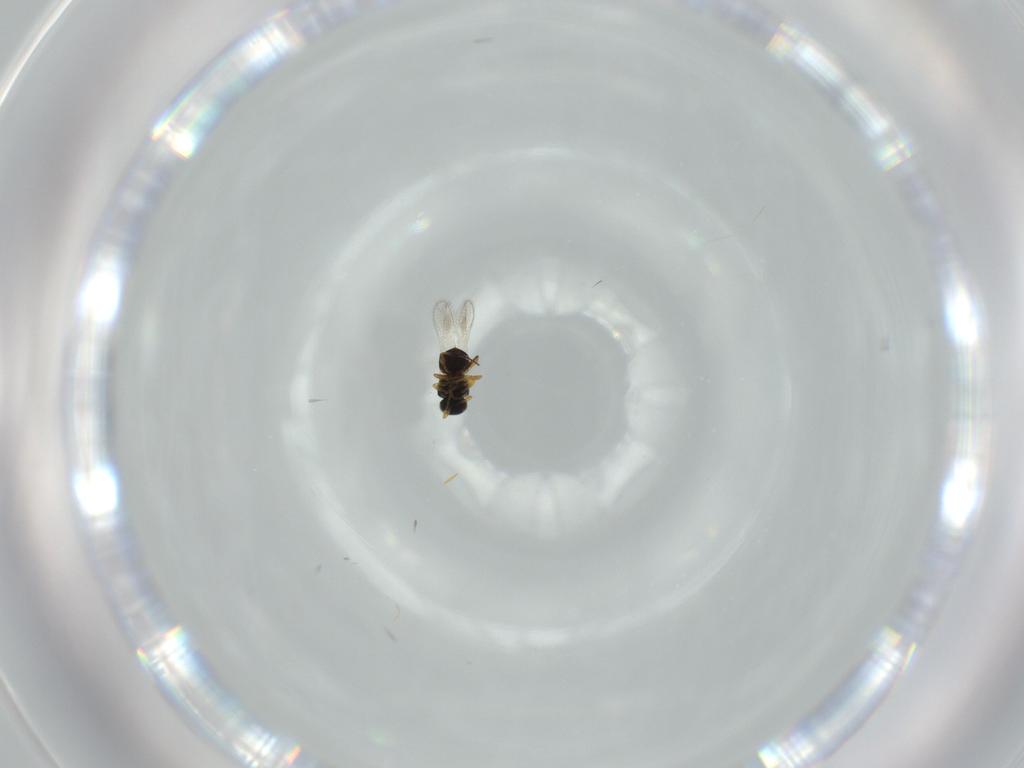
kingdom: Animalia
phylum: Arthropoda
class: Insecta
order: Hymenoptera
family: Platygastridae
